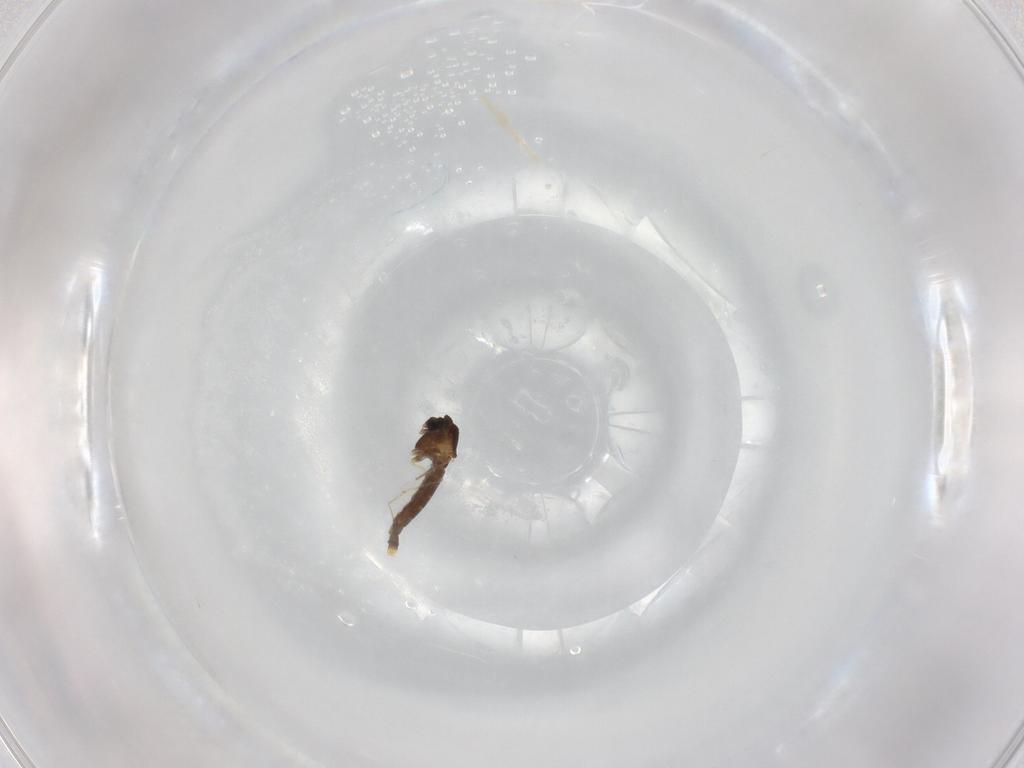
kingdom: Animalia
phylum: Arthropoda
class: Insecta
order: Diptera
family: Chironomidae
